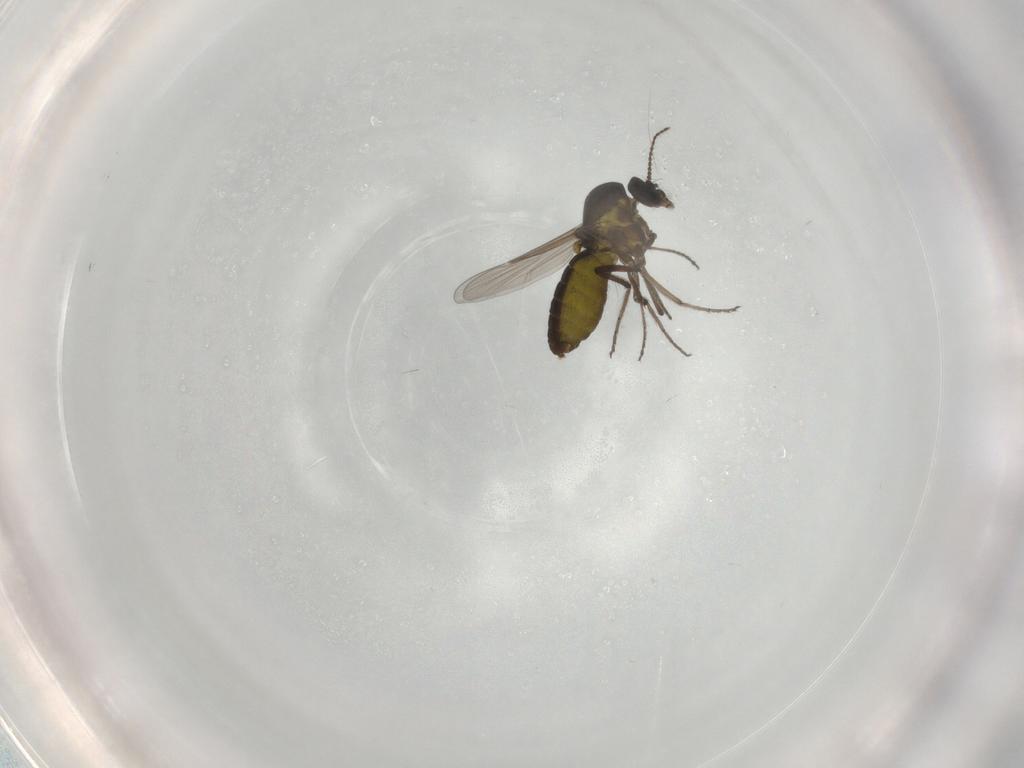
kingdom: Animalia
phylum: Arthropoda
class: Insecta
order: Diptera
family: Ceratopogonidae
